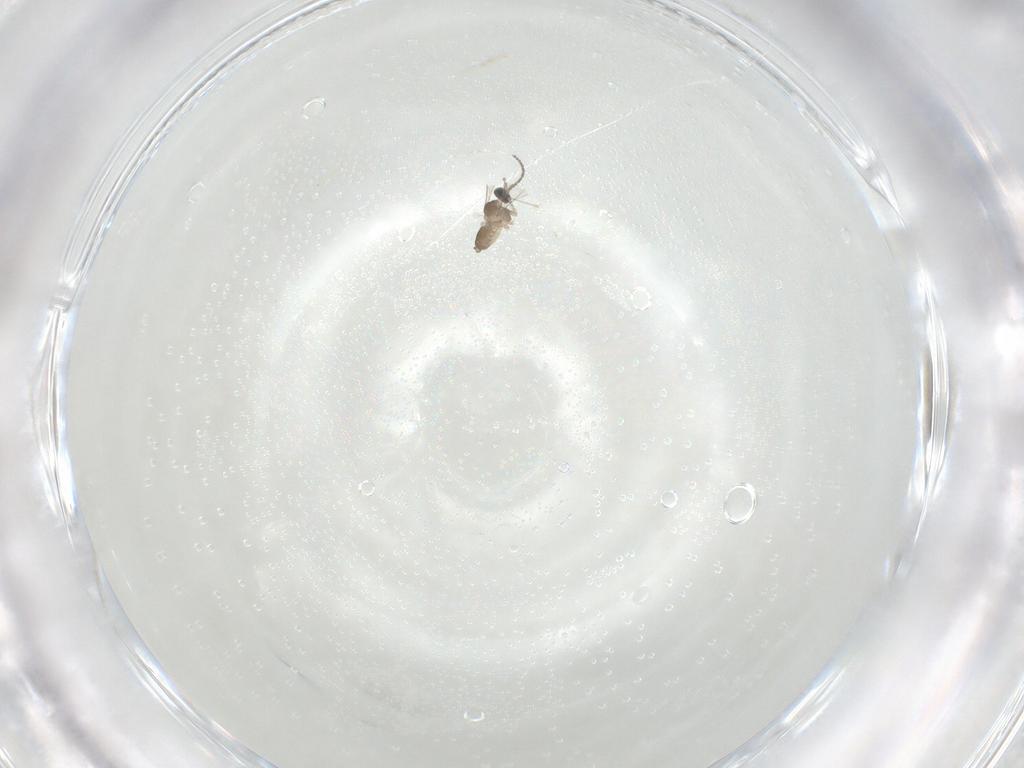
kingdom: Animalia
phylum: Arthropoda
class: Insecta
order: Diptera
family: Cecidomyiidae
